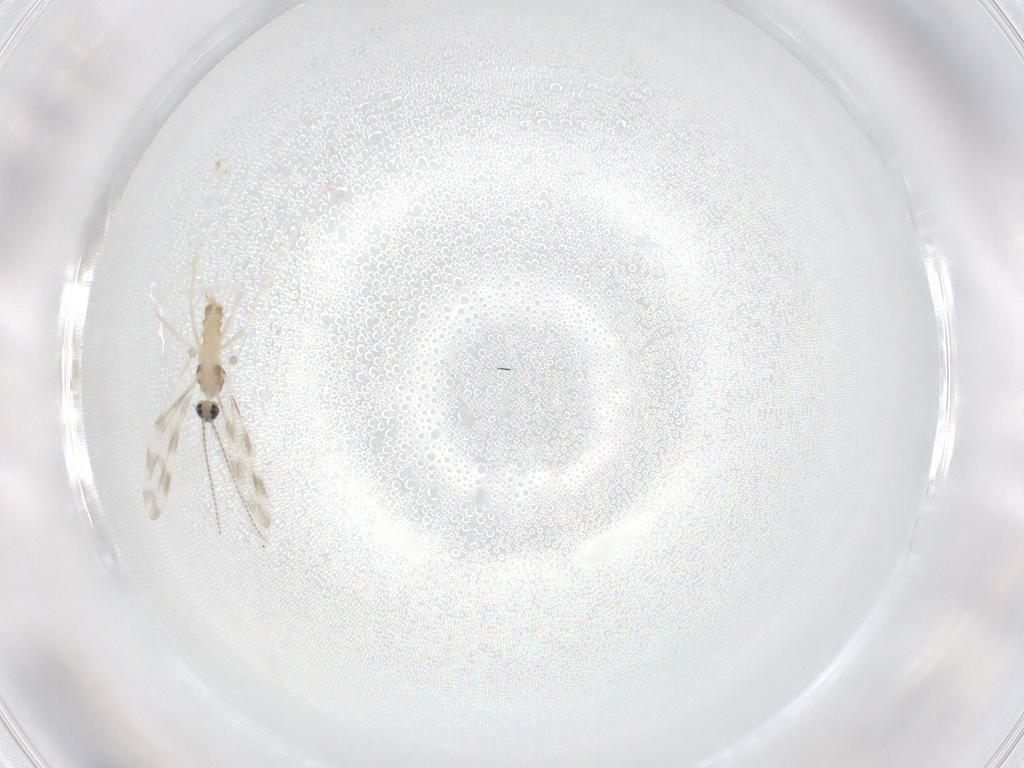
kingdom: Animalia
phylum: Arthropoda
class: Insecta
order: Diptera
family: Cecidomyiidae
